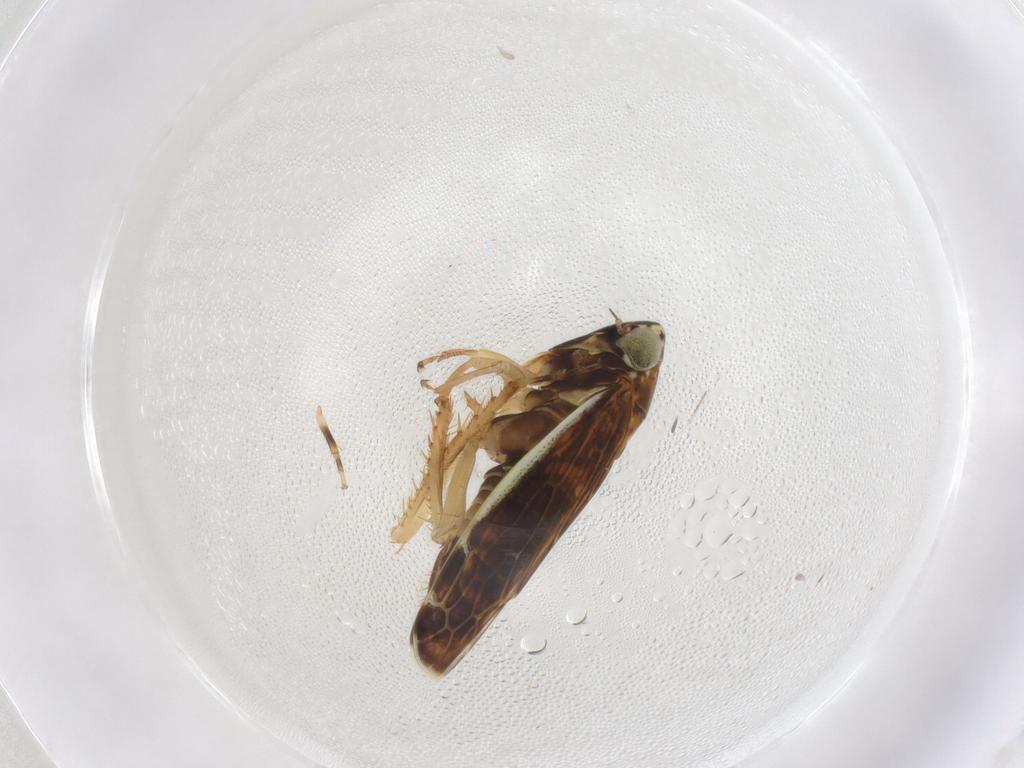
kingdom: Animalia
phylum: Arthropoda
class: Insecta
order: Hemiptera
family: Cicadellidae
